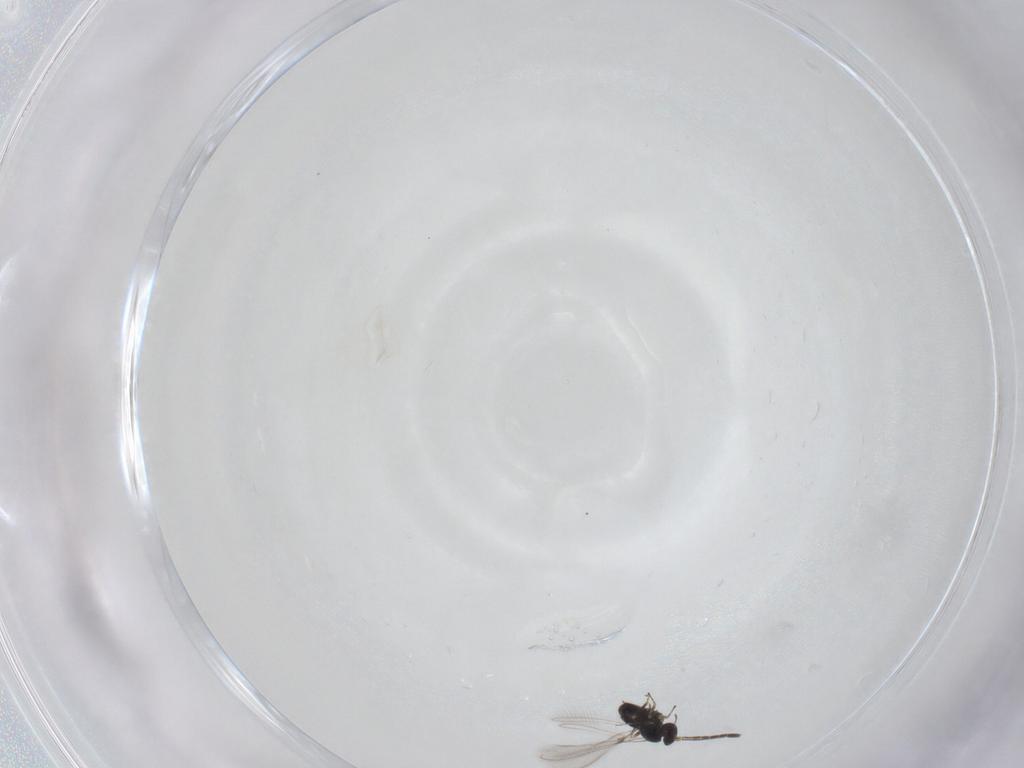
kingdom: Animalia
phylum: Arthropoda
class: Insecta
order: Hymenoptera
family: Mymaridae
